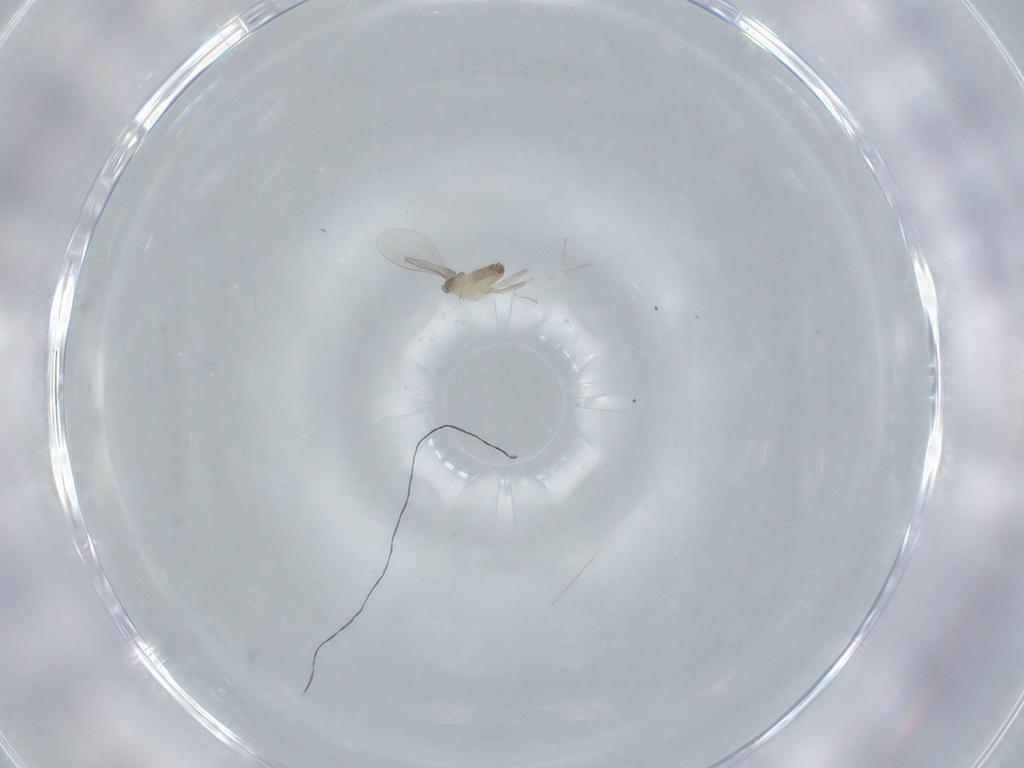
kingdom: Animalia
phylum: Arthropoda
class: Insecta
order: Diptera
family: Cecidomyiidae
